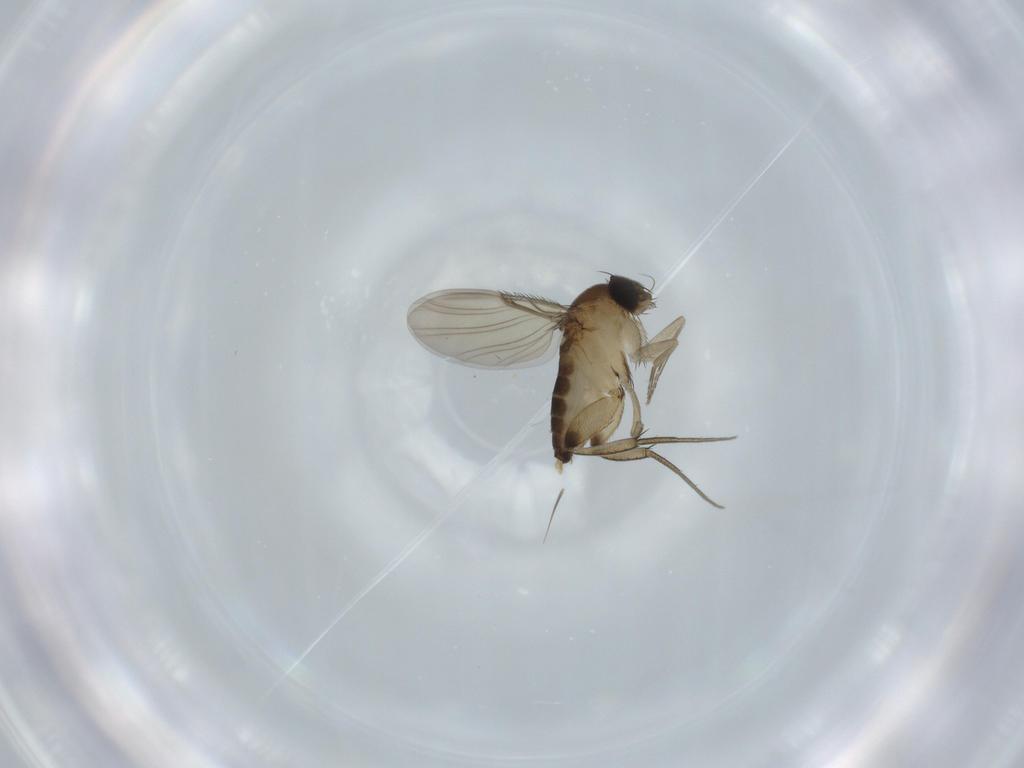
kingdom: Animalia
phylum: Arthropoda
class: Insecta
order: Diptera
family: Phoridae
